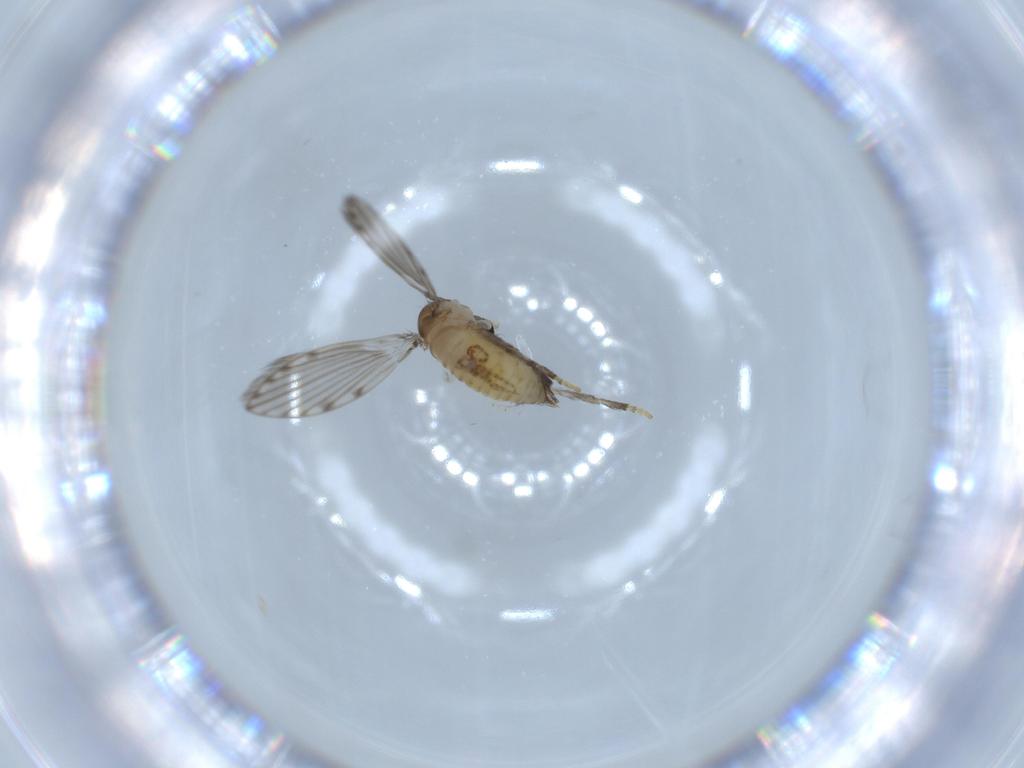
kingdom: Animalia
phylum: Arthropoda
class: Insecta
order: Diptera
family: Psychodidae
